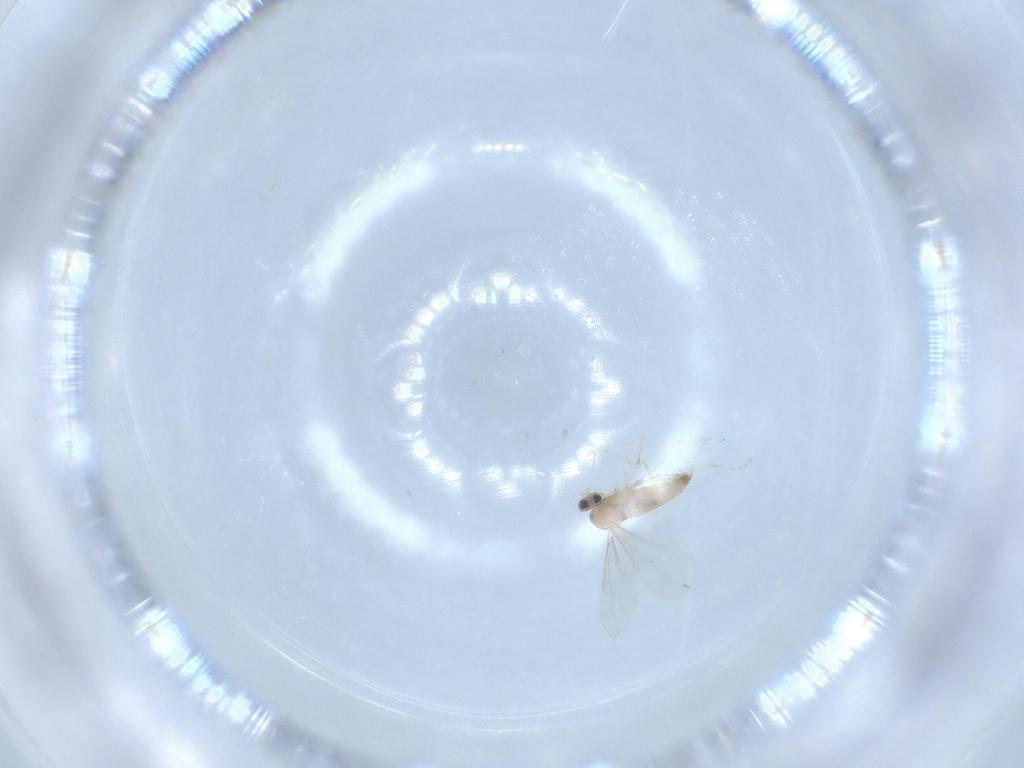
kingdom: Animalia
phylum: Arthropoda
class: Insecta
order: Diptera
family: Cecidomyiidae
